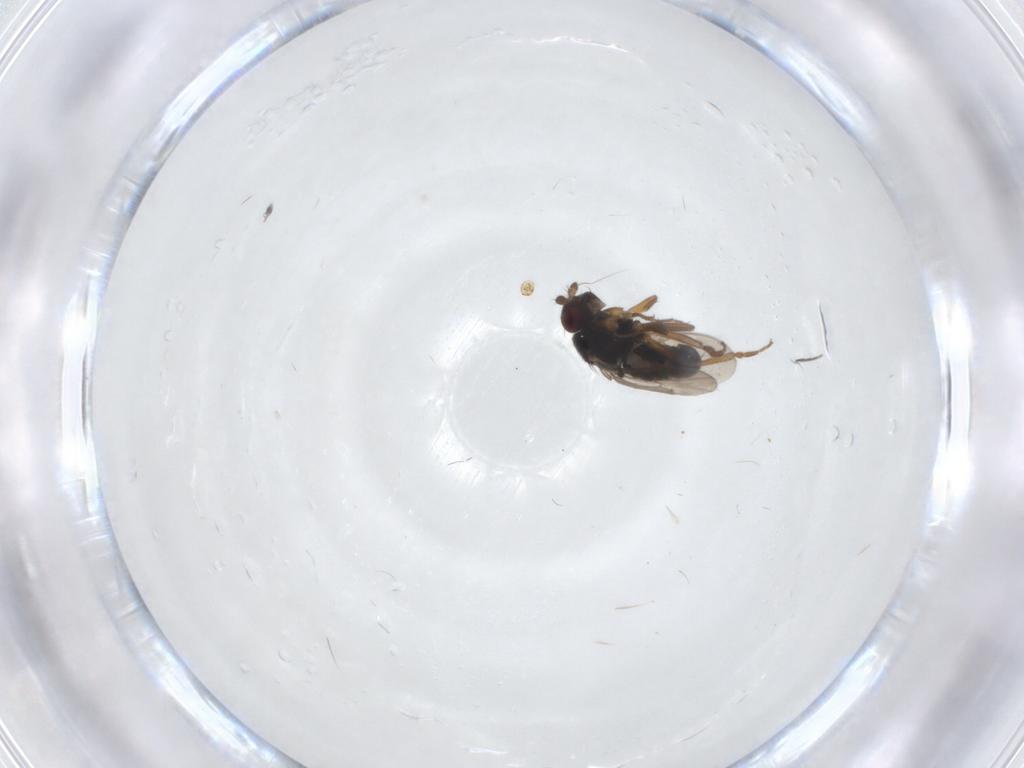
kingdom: Animalia
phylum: Arthropoda
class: Insecta
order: Diptera
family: Sphaeroceridae
